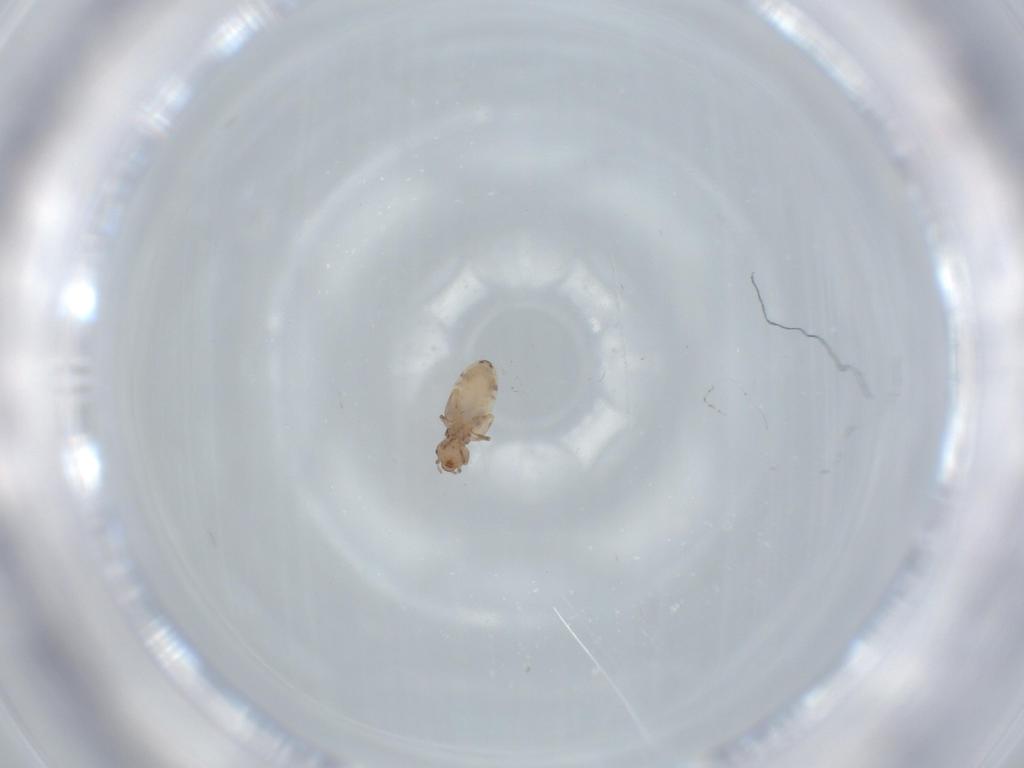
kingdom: Animalia
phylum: Arthropoda
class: Insecta
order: Psocodea
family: Liposcelididae
